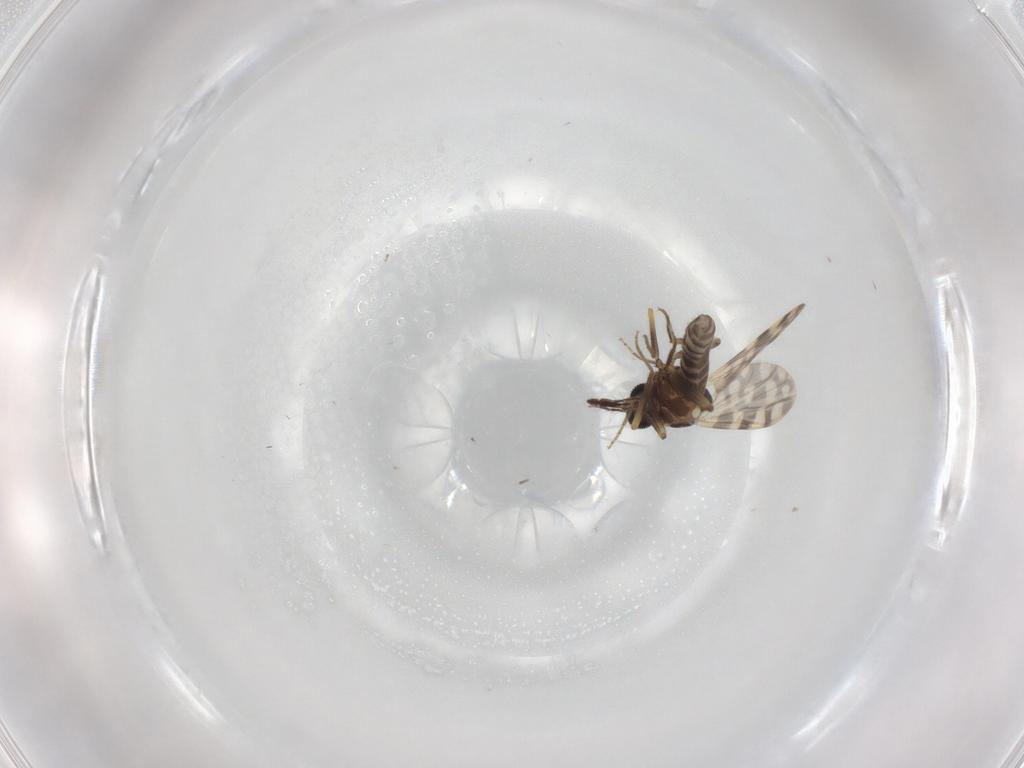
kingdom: Animalia
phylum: Arthropoda
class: Insecta
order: Diptera
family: Ceratopogonidae
